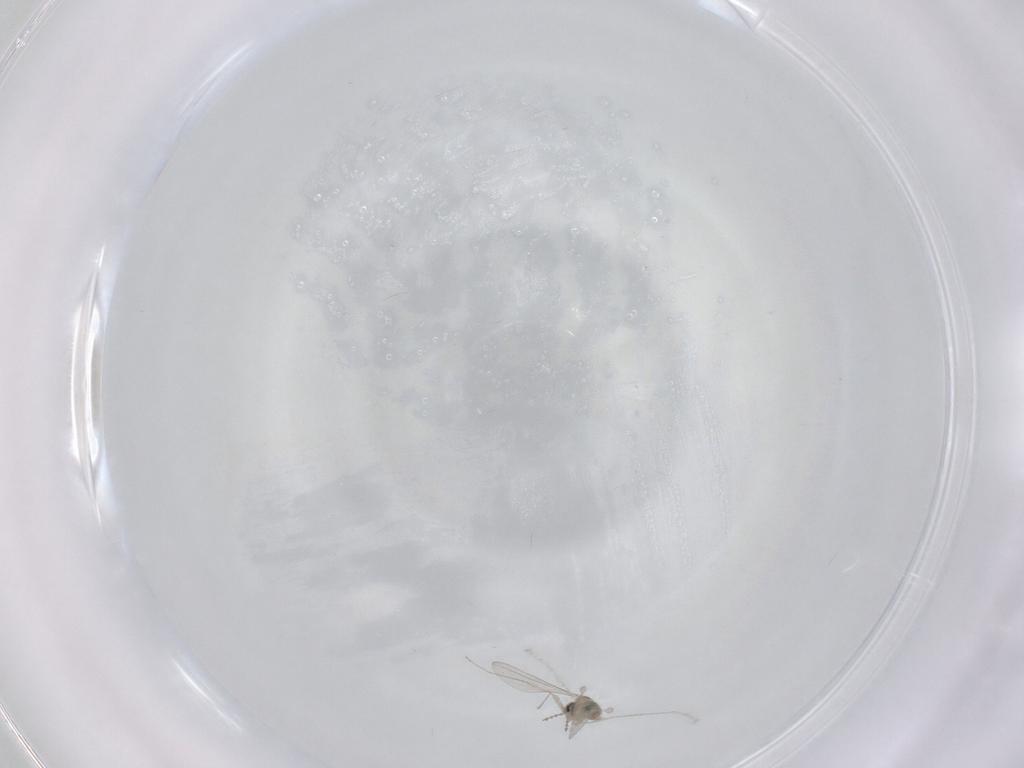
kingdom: Animalia
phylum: Arthropoda
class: Insecta
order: Diptera
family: Cecidomyiidae
